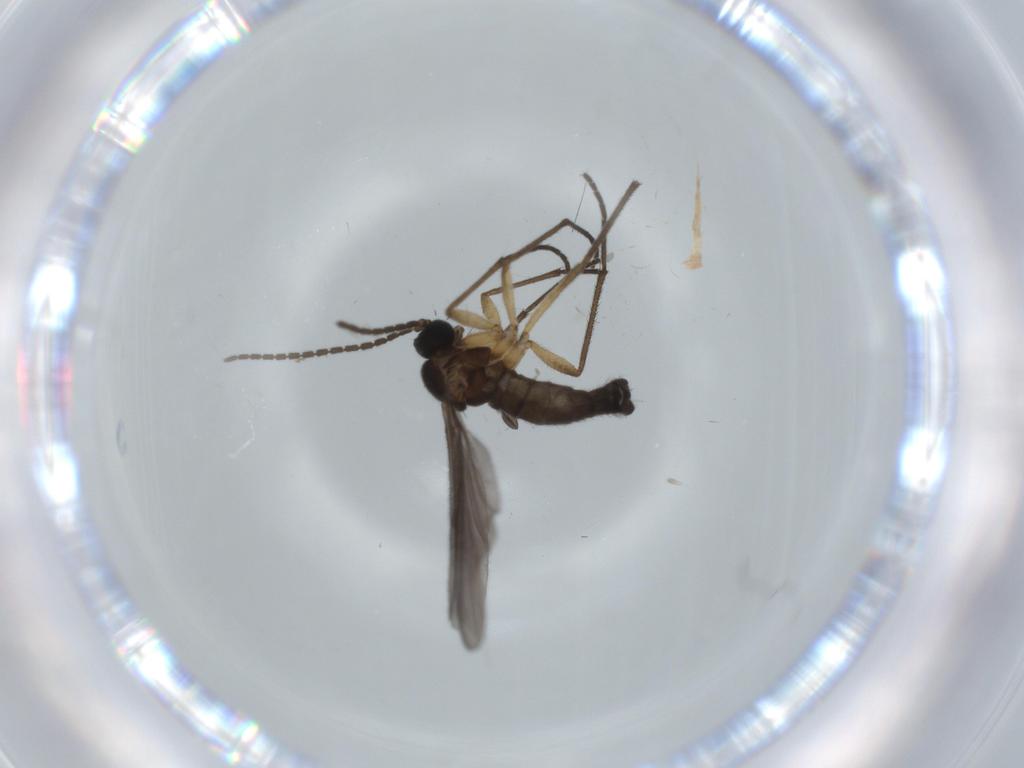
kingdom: Animalia
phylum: Arthropoda
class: Insecta
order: Diptera
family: Sciaridae
